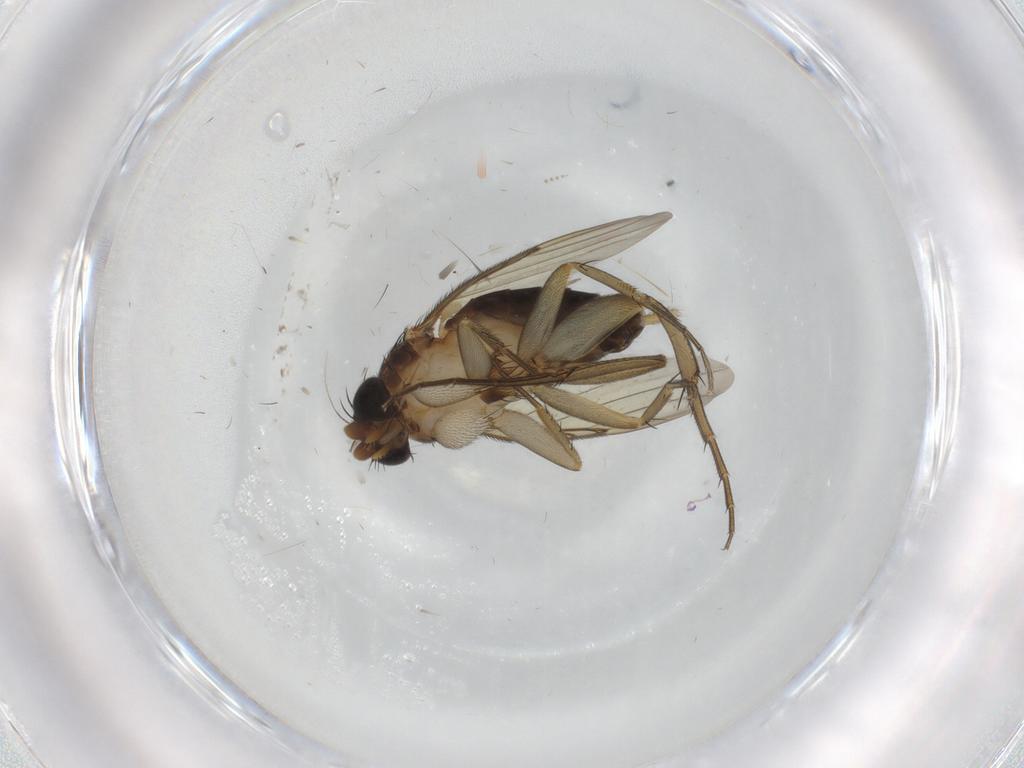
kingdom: Animalia
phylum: Arthropoda
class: Insecta
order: Diptera
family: Phoridae
